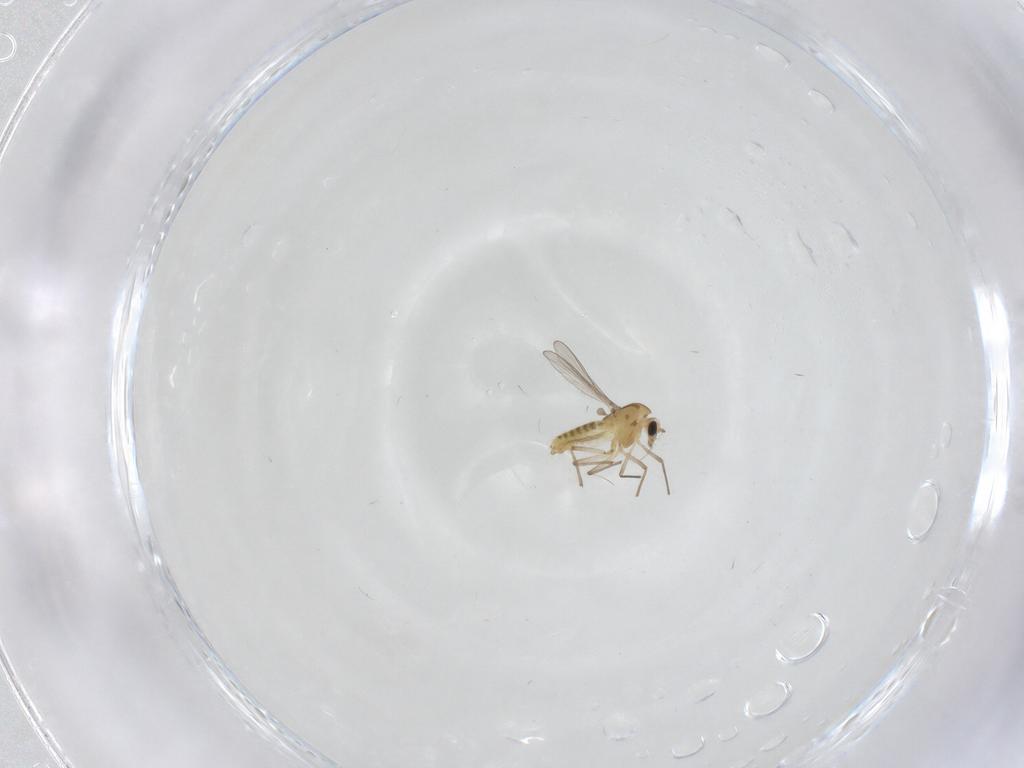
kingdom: Animalia
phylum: Arthropoda
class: Insecta
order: Diptera
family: Chironomidae
